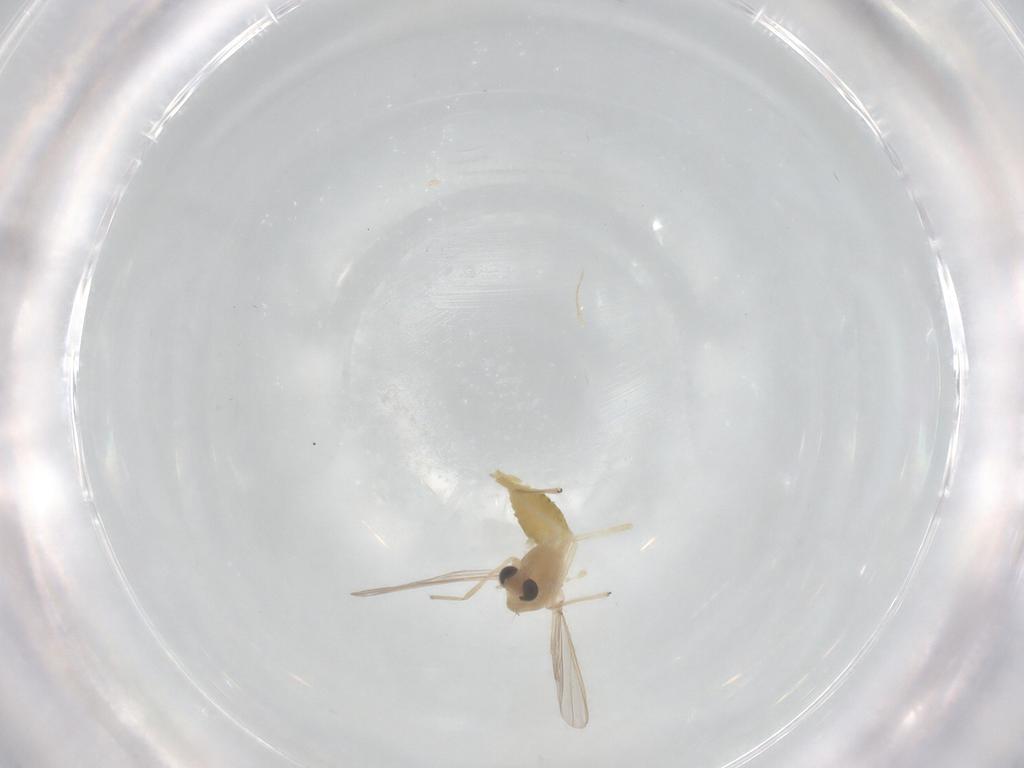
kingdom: Animalia
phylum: Arthropoda
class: Insecta
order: Diptera
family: Chironomidae
